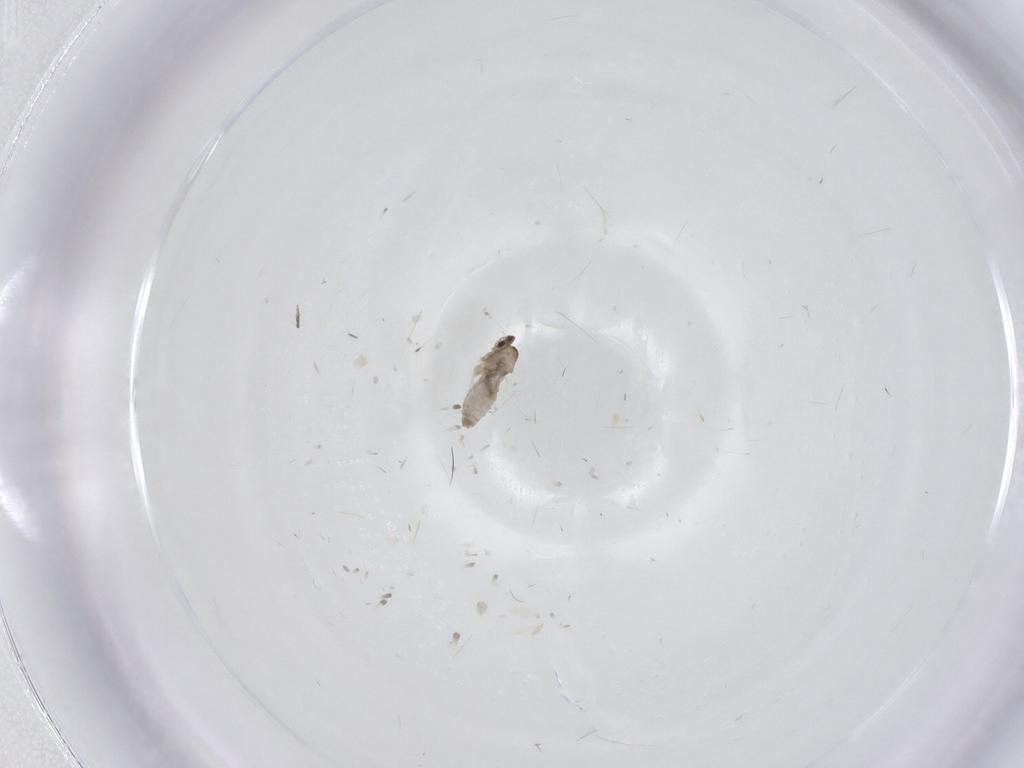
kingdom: Animalia
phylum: Arthropoda
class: Insecta
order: Diptera
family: Cecidomyiidae
